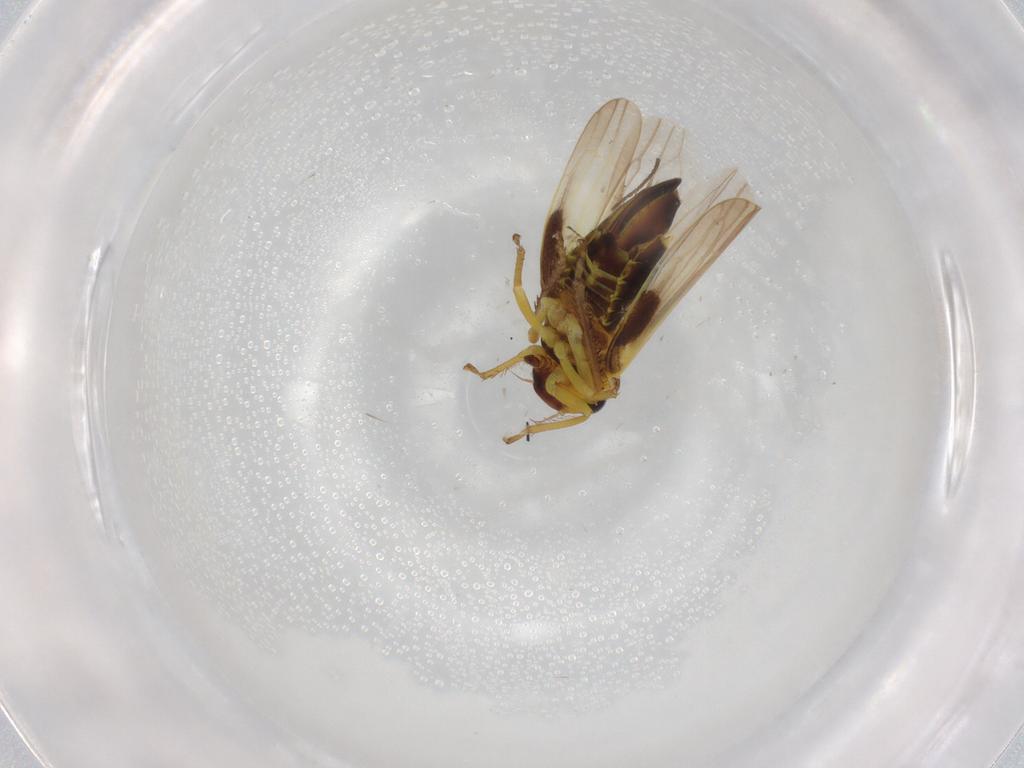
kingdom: Animalia
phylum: Arthropoda
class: Insecta
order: Hemiptera
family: Cicadellidae
